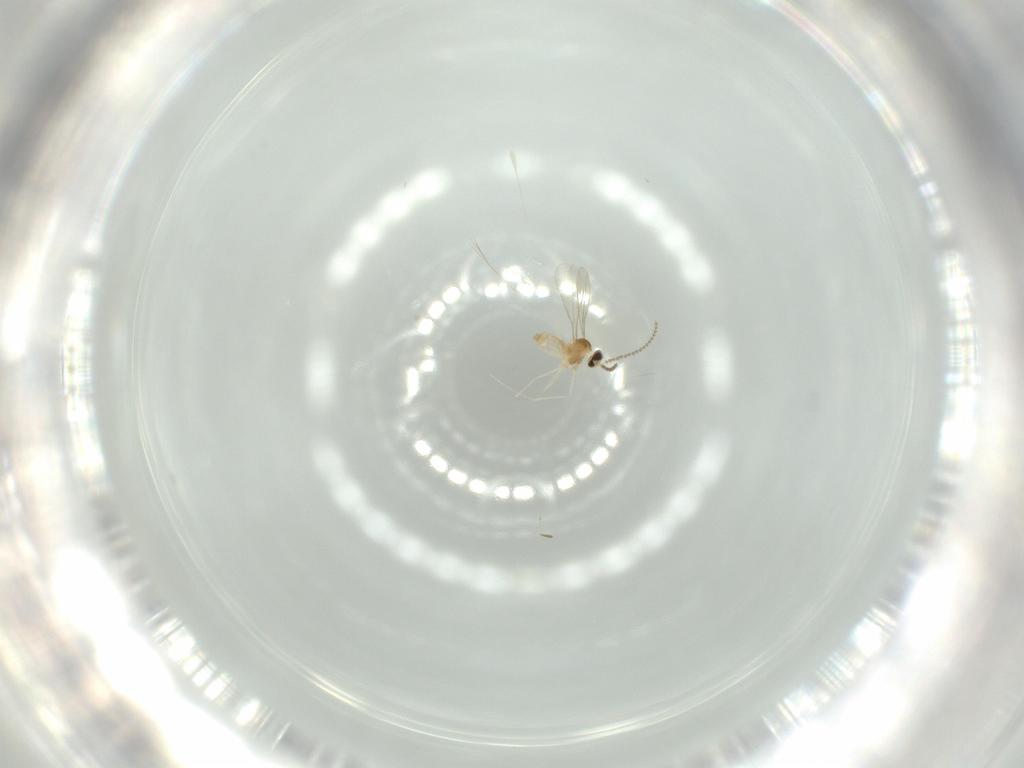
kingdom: Animalia
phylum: Arthropoda
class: Insecta
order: Diptera
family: Cecidomyiidae
